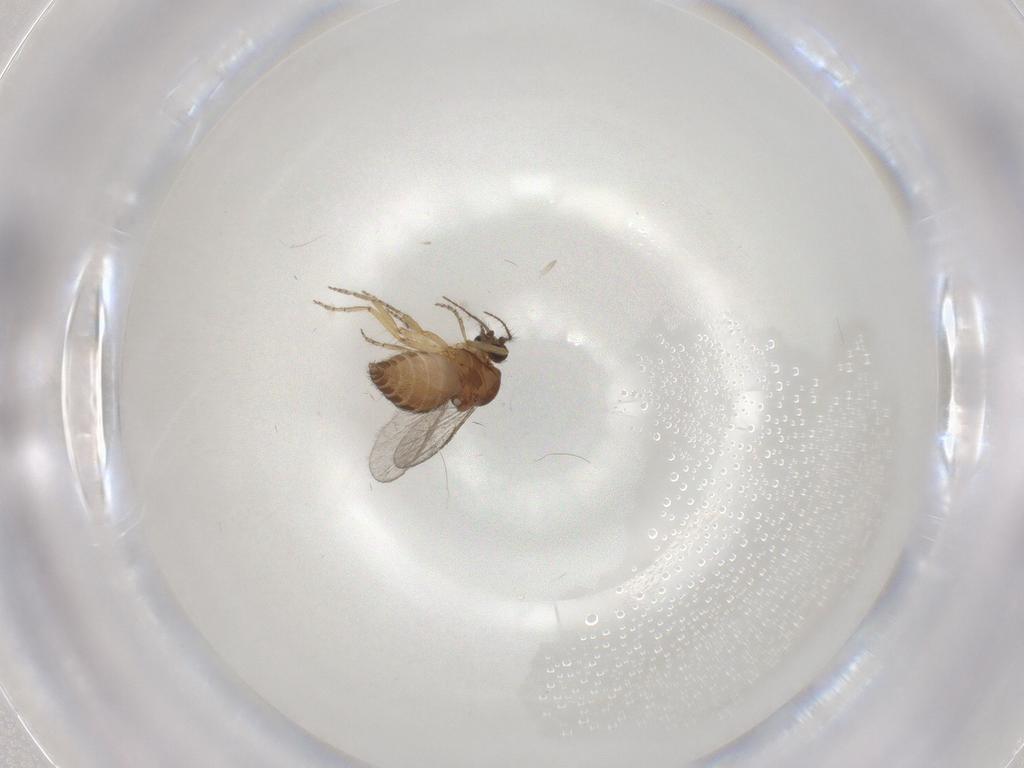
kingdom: Animalia
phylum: Arthropoda
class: Insecta
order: Diptera
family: Ceratopogonidae
